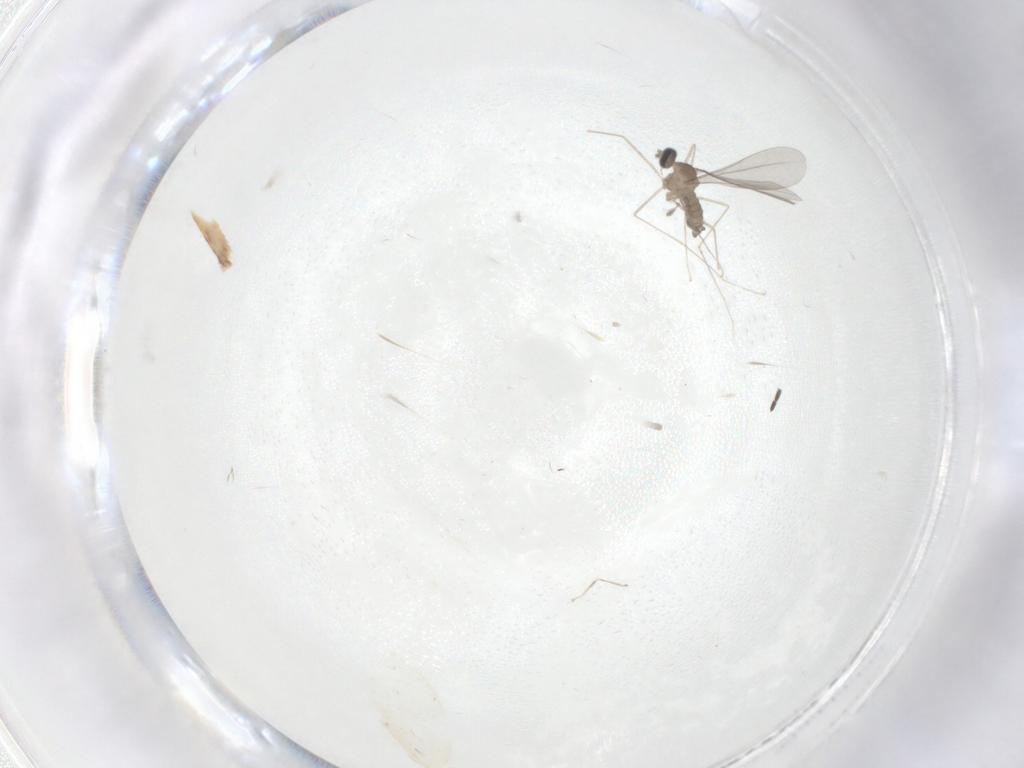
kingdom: Animalia
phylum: Arthropoda
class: Insecta
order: Diptera
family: Cecidomyiidae
